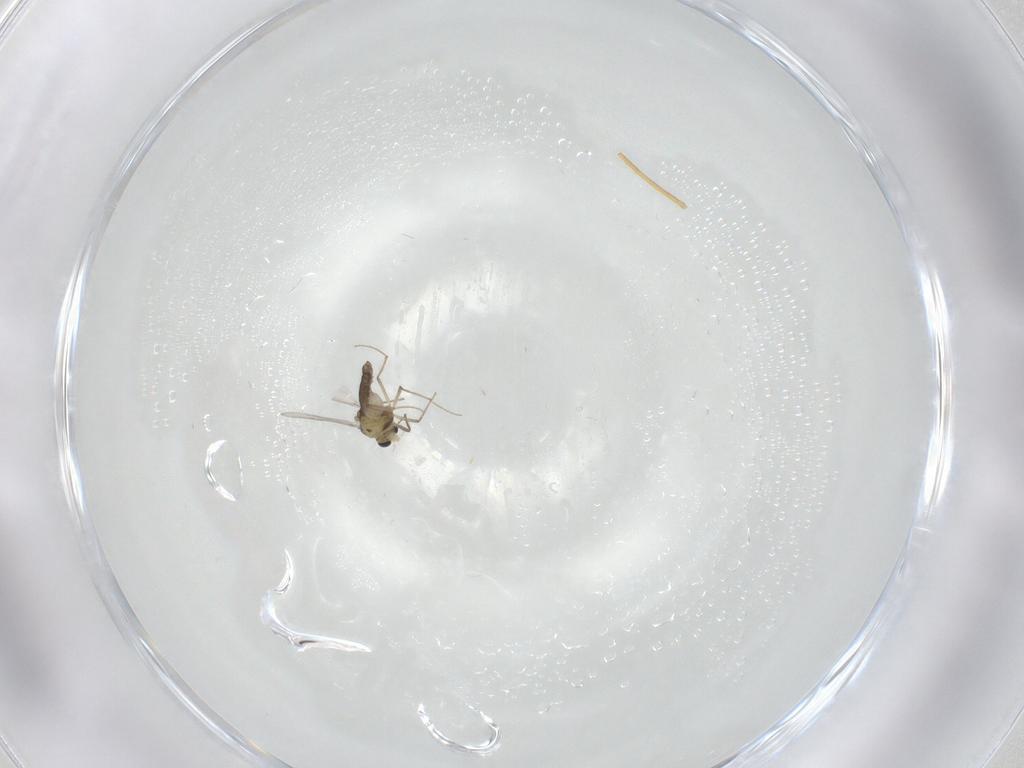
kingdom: Animalia
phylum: Arthropoda
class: Insecta
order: Diptera
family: Chironomidae
